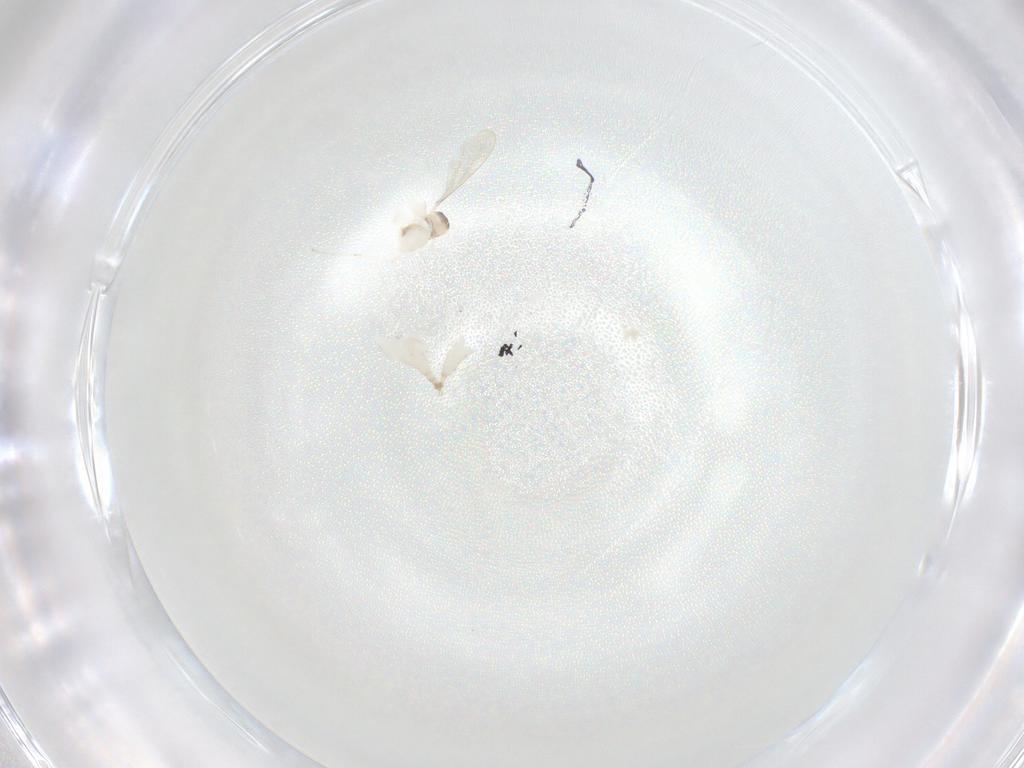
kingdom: Animalia
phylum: Arthropoda
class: Insecta
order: Diptera
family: Cecidomyiidae
